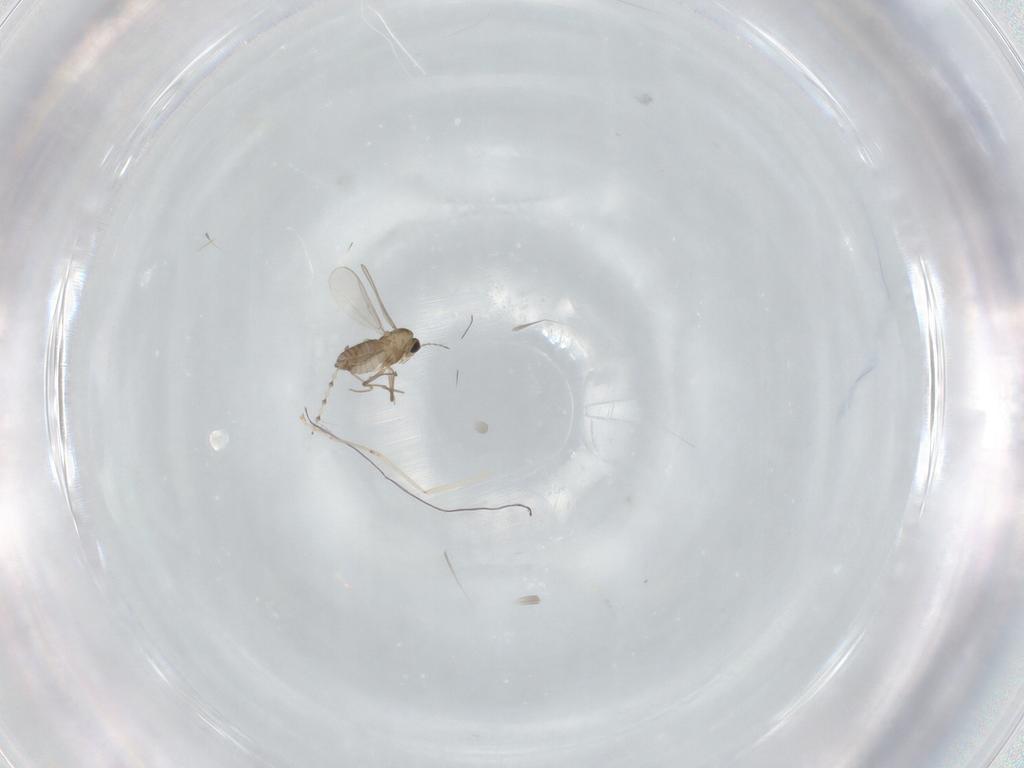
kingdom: Animalia
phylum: Arthropoda
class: Insecta
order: Diptera
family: Chironomidae
